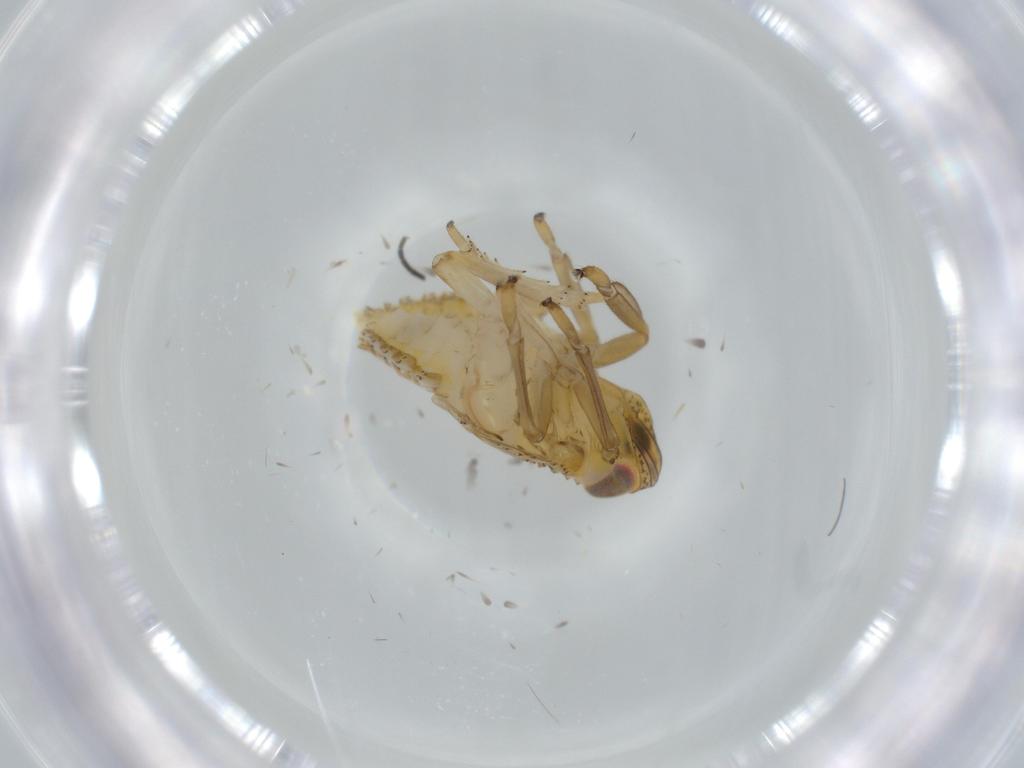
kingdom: Animalia
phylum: Arthropoda
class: Insecta
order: Hemiptera
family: Issidae
